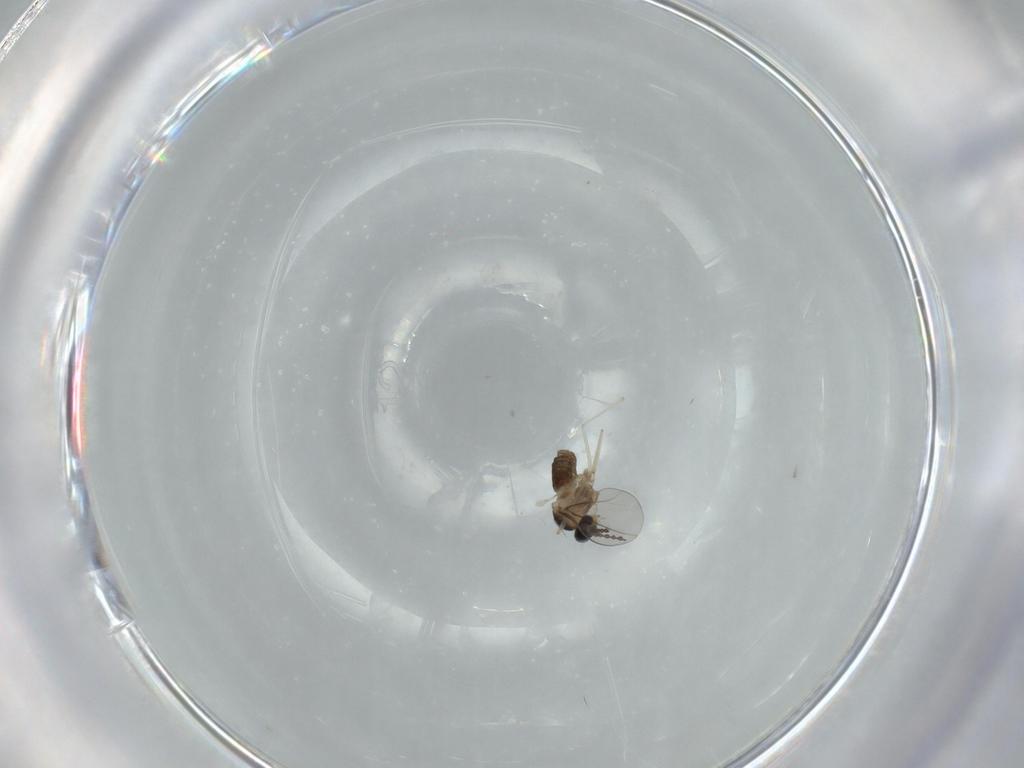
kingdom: Animalia
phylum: Arthropoda
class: Insecta
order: Diptera
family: Cecidomyiidae
